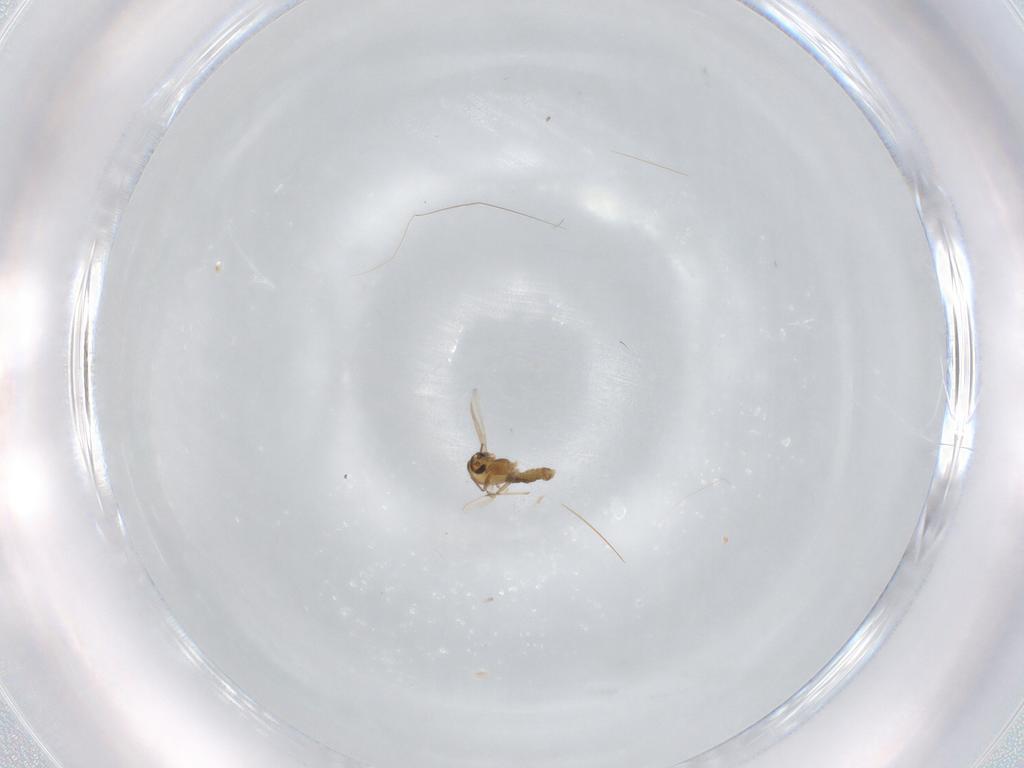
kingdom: Animalia
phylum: Arthropoda
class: Insecta
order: Diptera
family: Chironomidae
